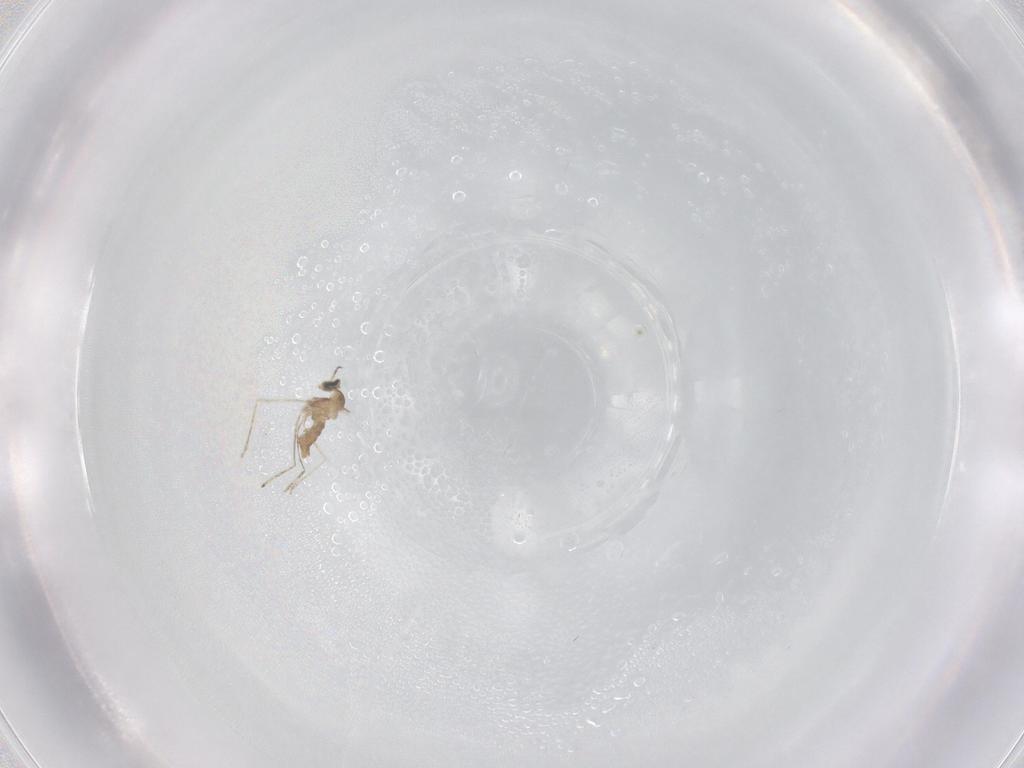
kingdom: Animalia
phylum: Arthropoda
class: Insecta
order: Diptera
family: Cecidomyiidae
